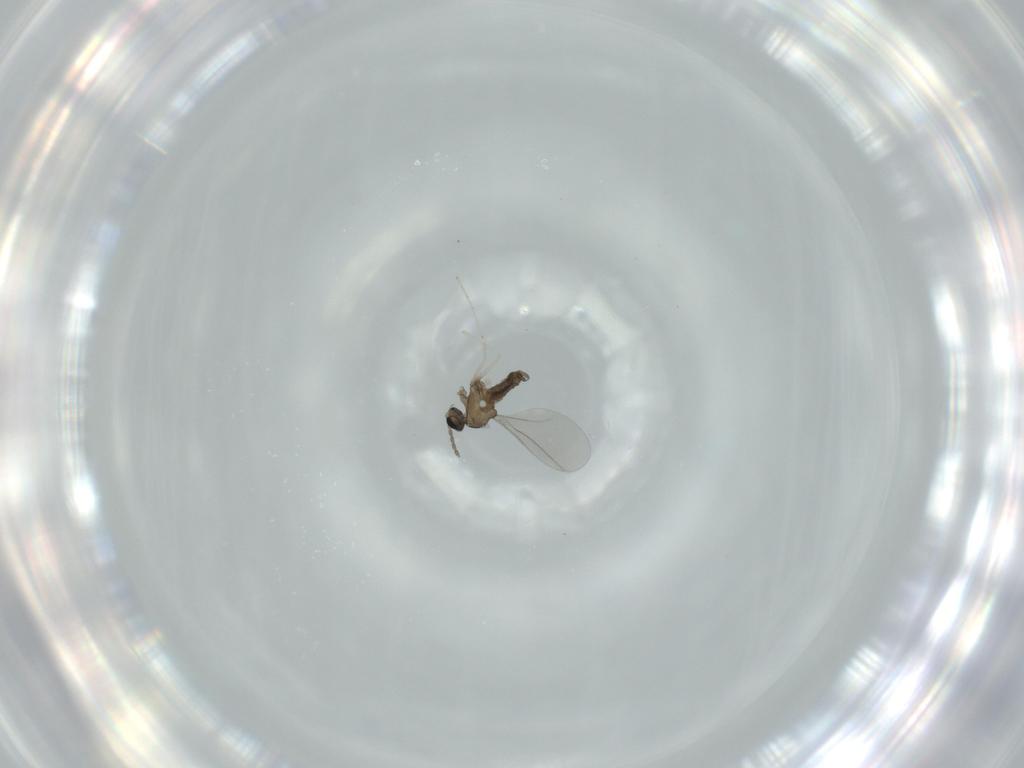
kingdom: Animalia
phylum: Arthropoda
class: Insecta
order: Diptera
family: Cecidomyiidae
